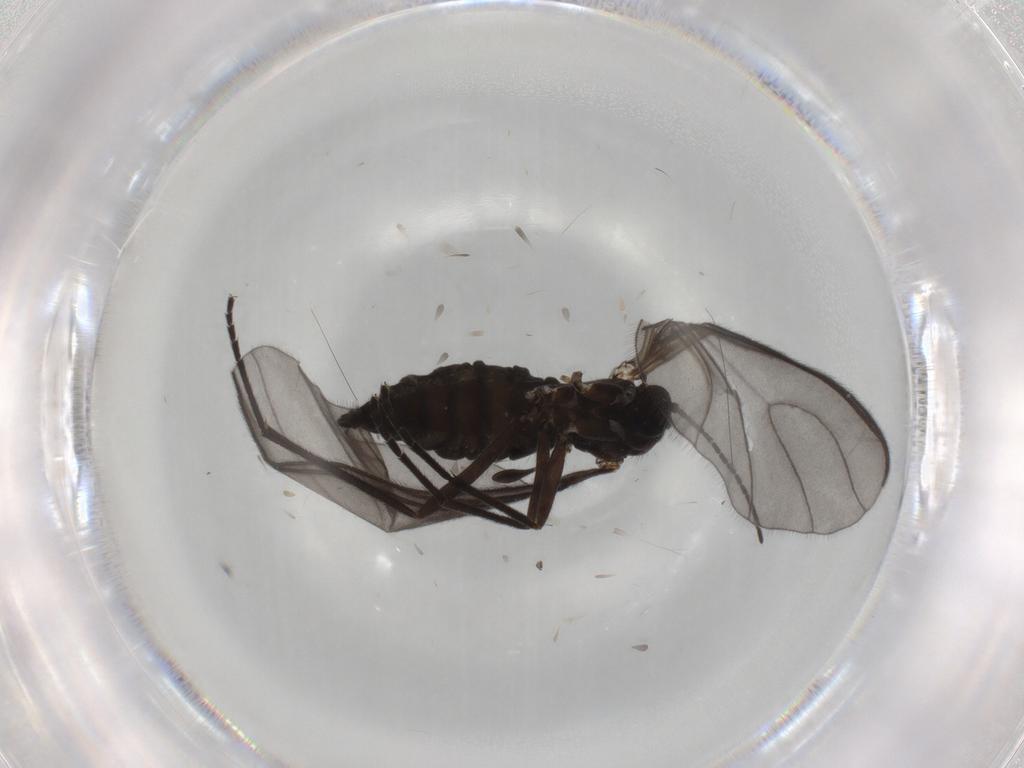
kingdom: Animalia
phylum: Arthropoda
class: Insecta
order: Diptera
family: Sciaridae
